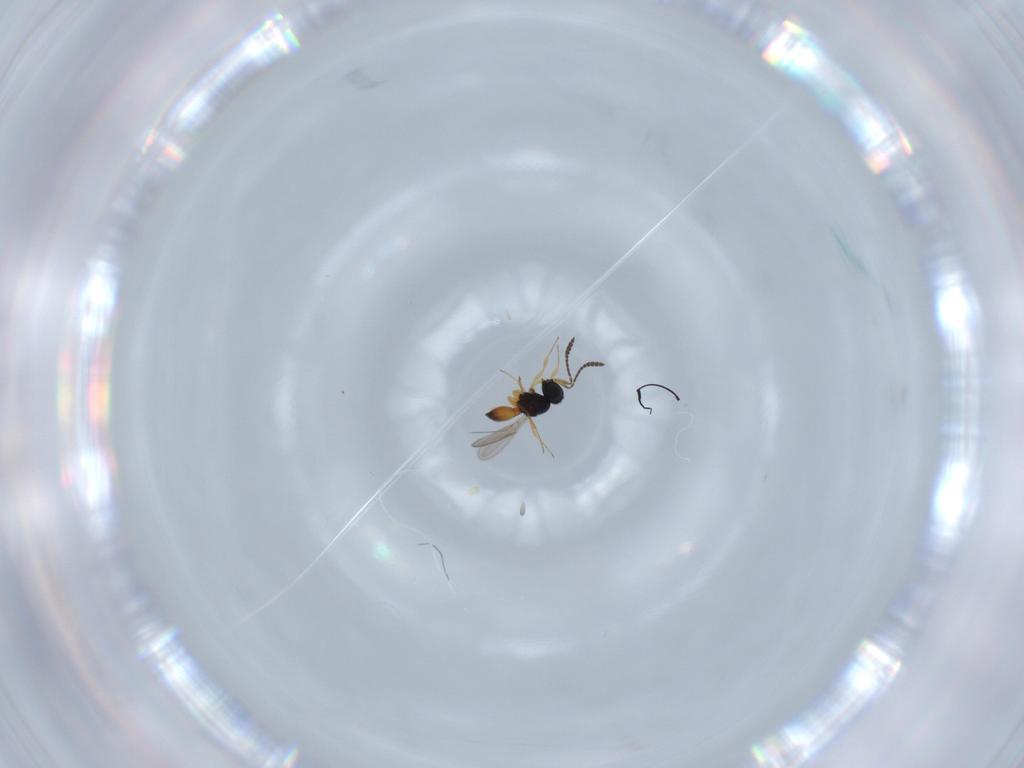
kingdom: Animalia
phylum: Arthropoda
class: Insecta
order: Hymenoptera
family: Scelionidae
